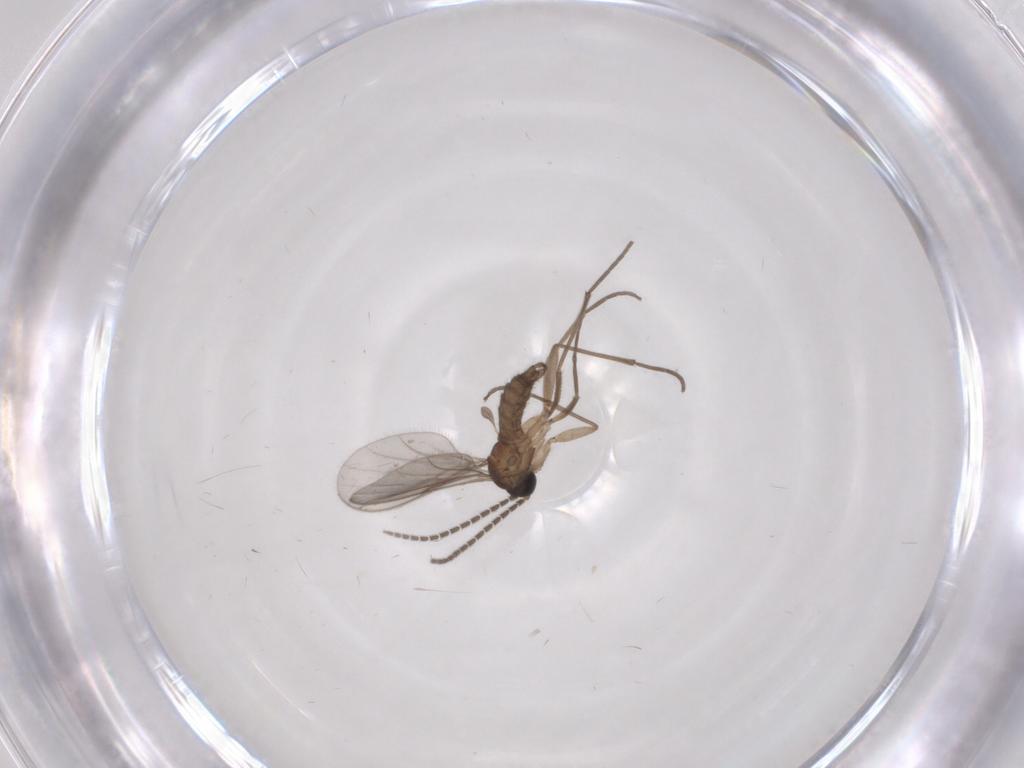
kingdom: Animalia
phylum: Arthropoda
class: Insecta
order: Diptera
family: Sciaridae
